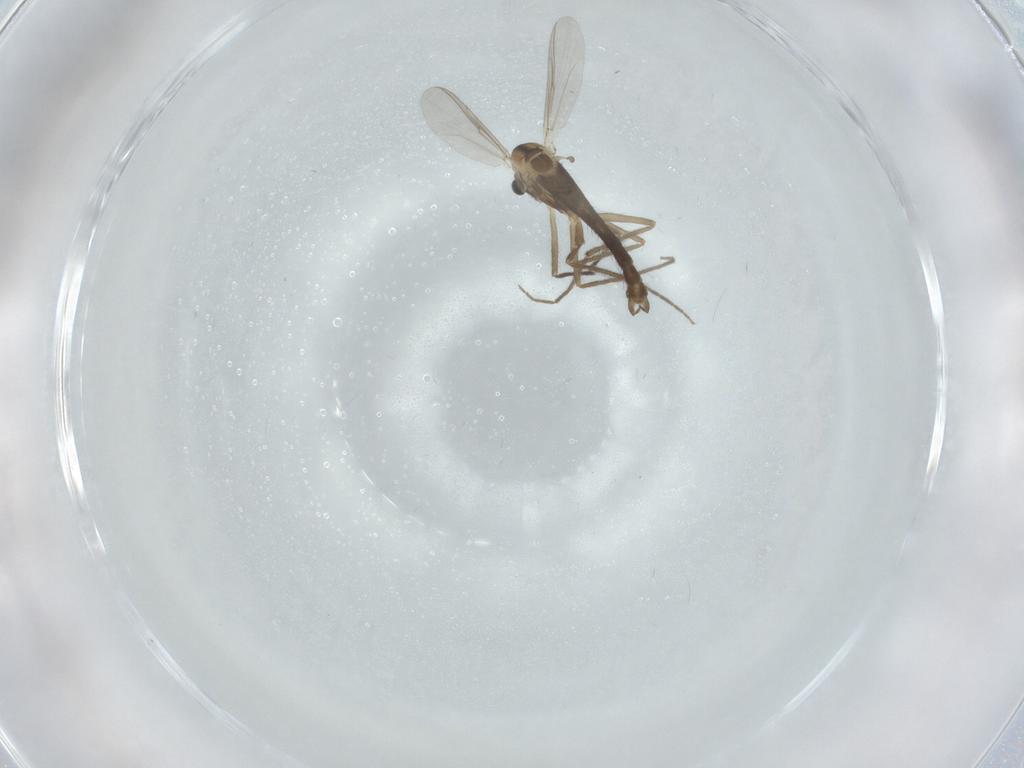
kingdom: Animalia
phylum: Arthropoda
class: Insecta
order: Diptera
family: Chironomidae
